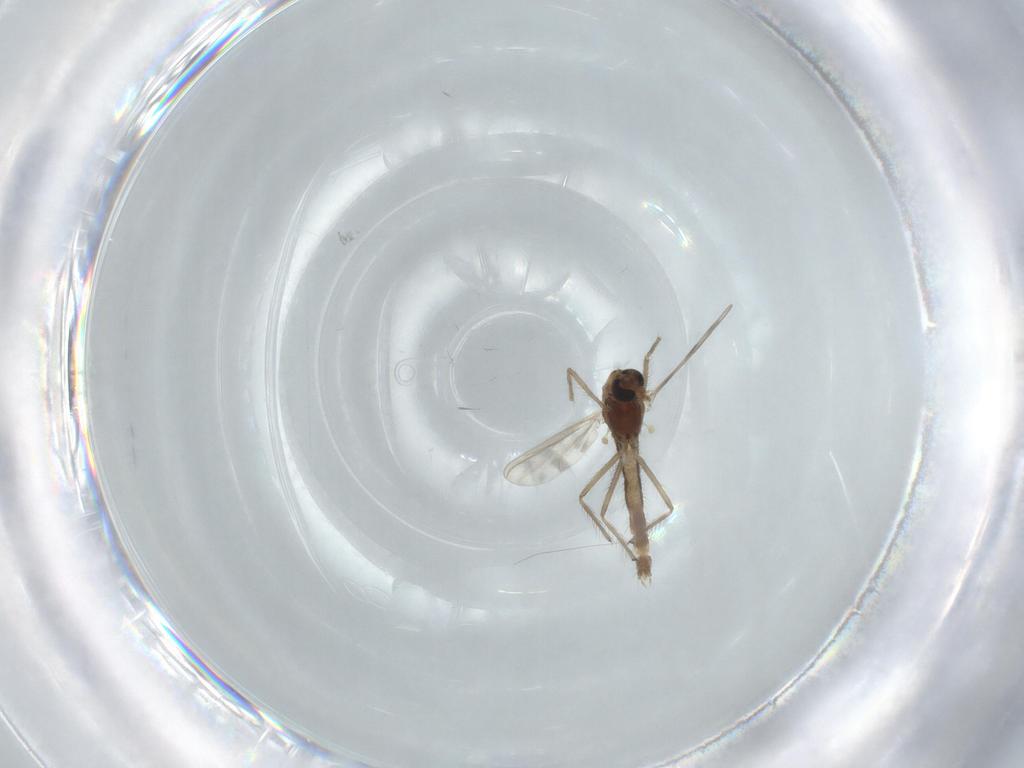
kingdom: Animalia
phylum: Arthropoda
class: Insecta
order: Diptera
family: Chironomidae
